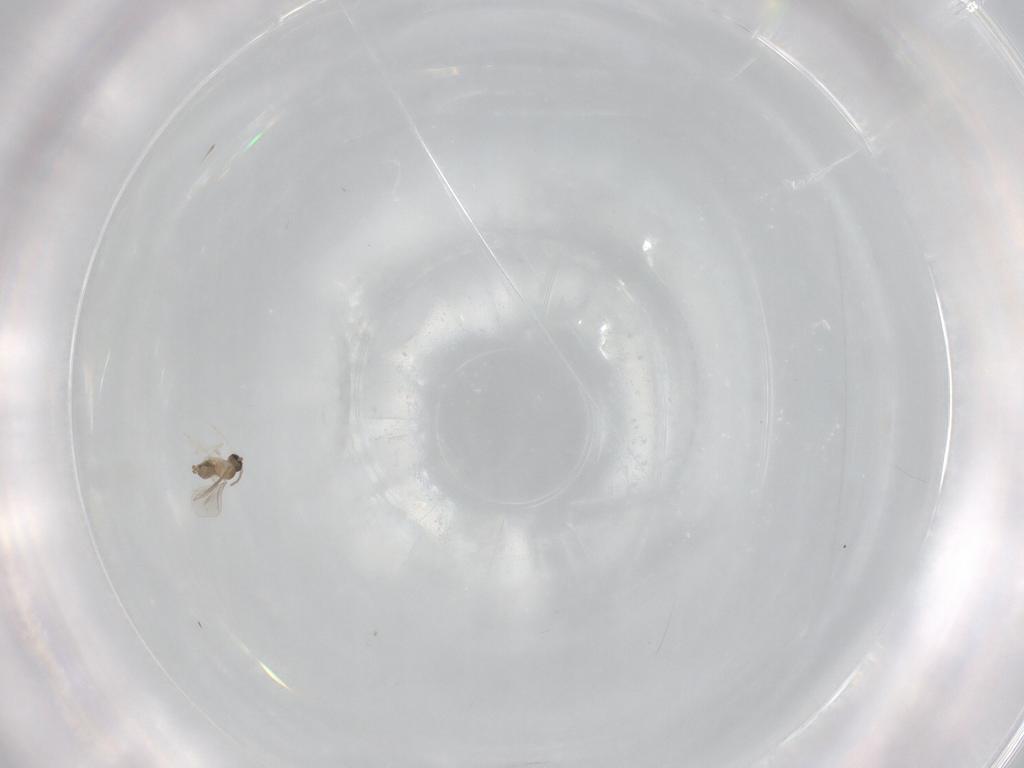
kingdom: Animalia
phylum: Arthropoda
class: Insecta
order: Diptera
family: Cecidomyiidae
